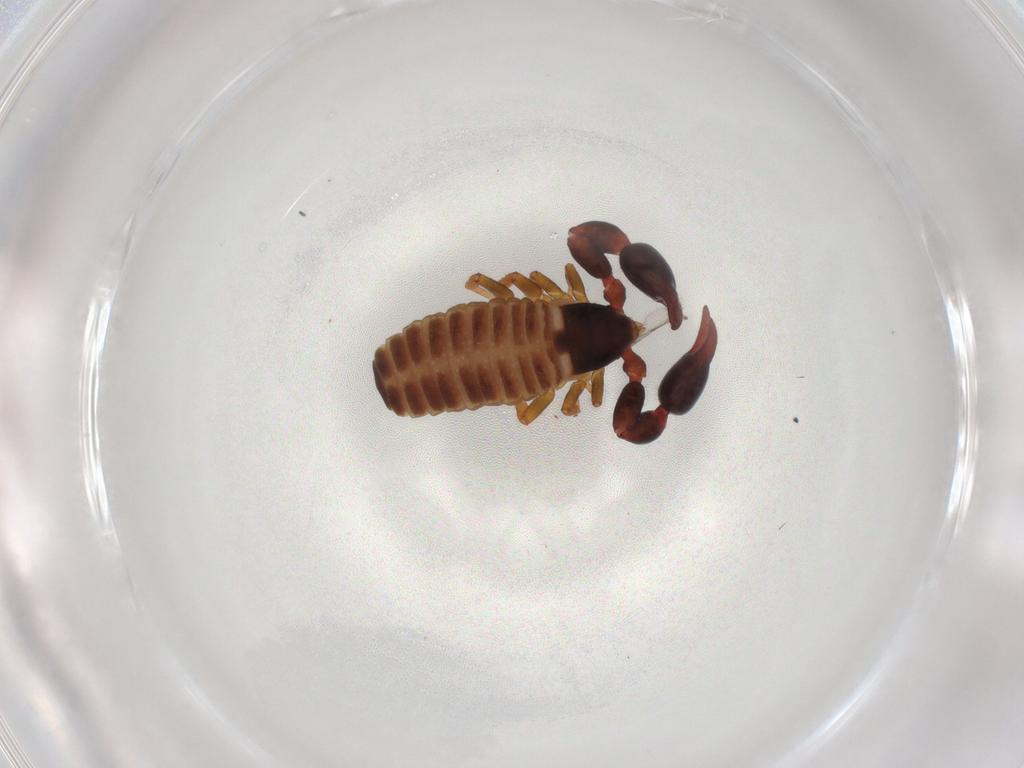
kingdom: Animalia
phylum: Arthropoda
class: Arachnida
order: Pseudoscorpiones
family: Chernetidae
